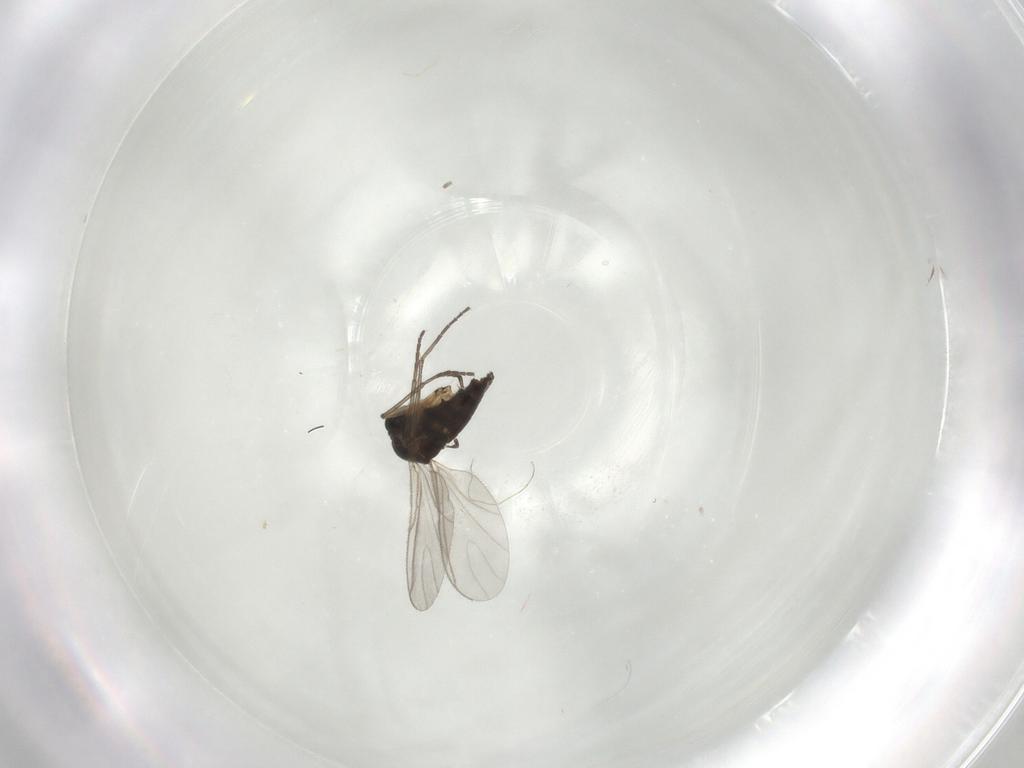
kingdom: Animalia
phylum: Arthropoda
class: Insecta
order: Diptera
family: Sciaridae
